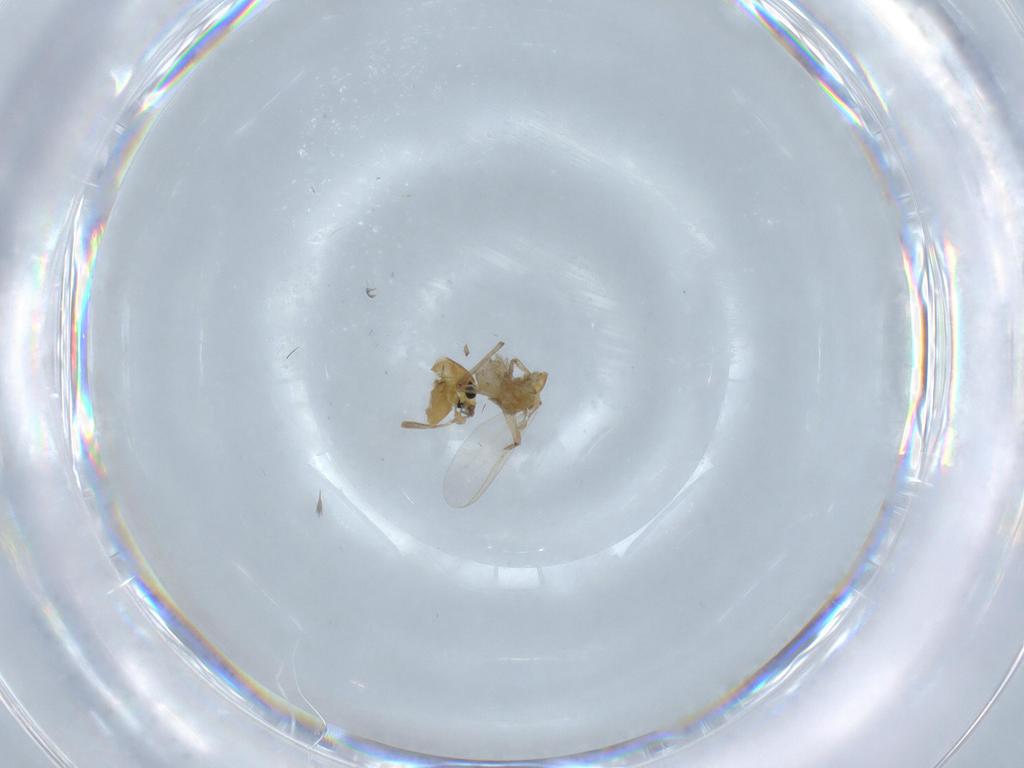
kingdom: Animalia
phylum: Arthropoda
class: Insecta
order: Diptera
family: Chironomidae
